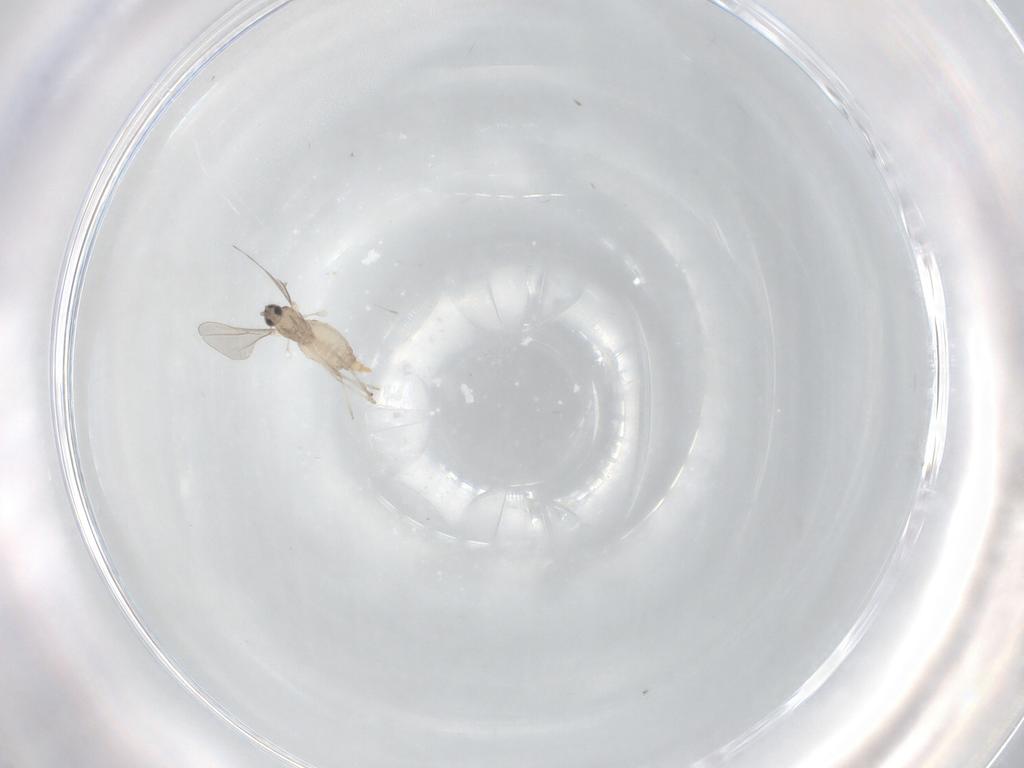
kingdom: Animalia
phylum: Arthropoda
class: Insecta
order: Diptera
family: Cecidomyiidae
